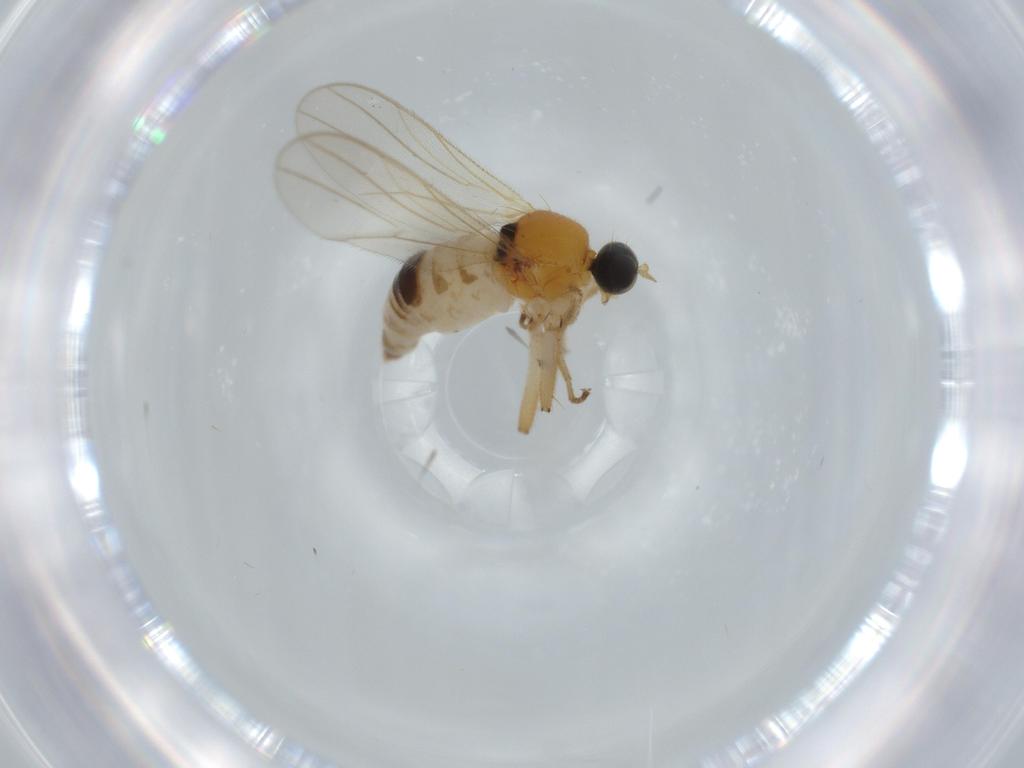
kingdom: Animalia
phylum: Arthropoda
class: Insecta
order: Diptera
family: Hybotidae
